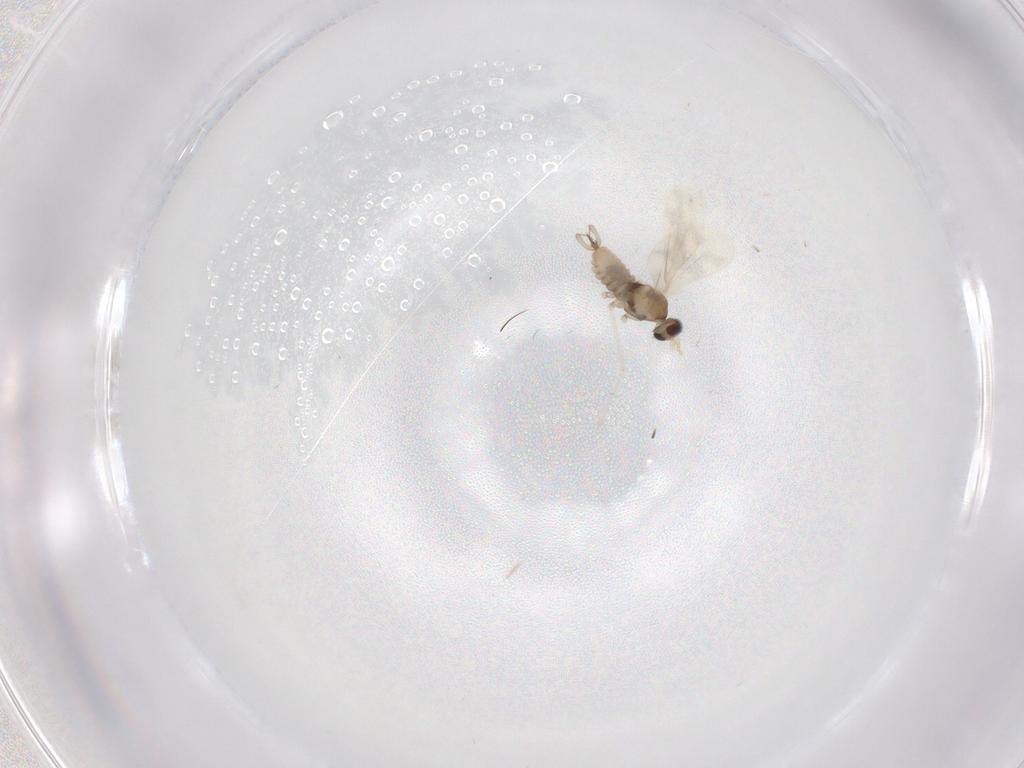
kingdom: Animalia
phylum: Arthropoda
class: Insecta
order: Diptera
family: Cecidomyiidae
